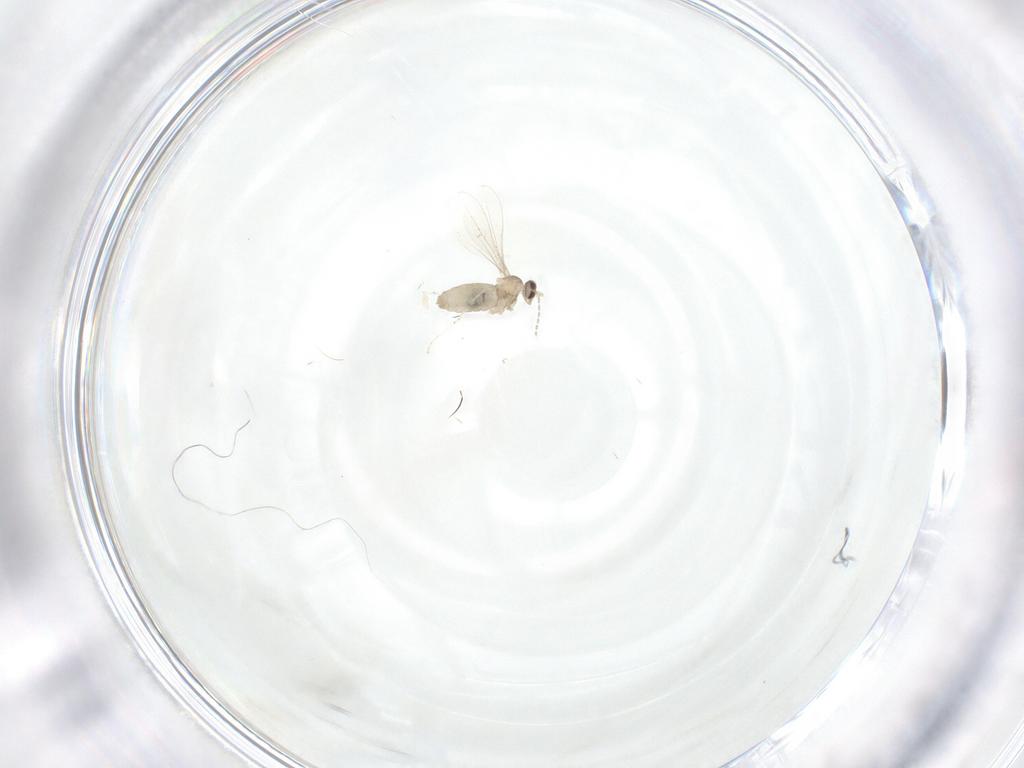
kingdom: Animalia
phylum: Arthropoda
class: Insecta
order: Diptera
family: Cecidomyiidae
